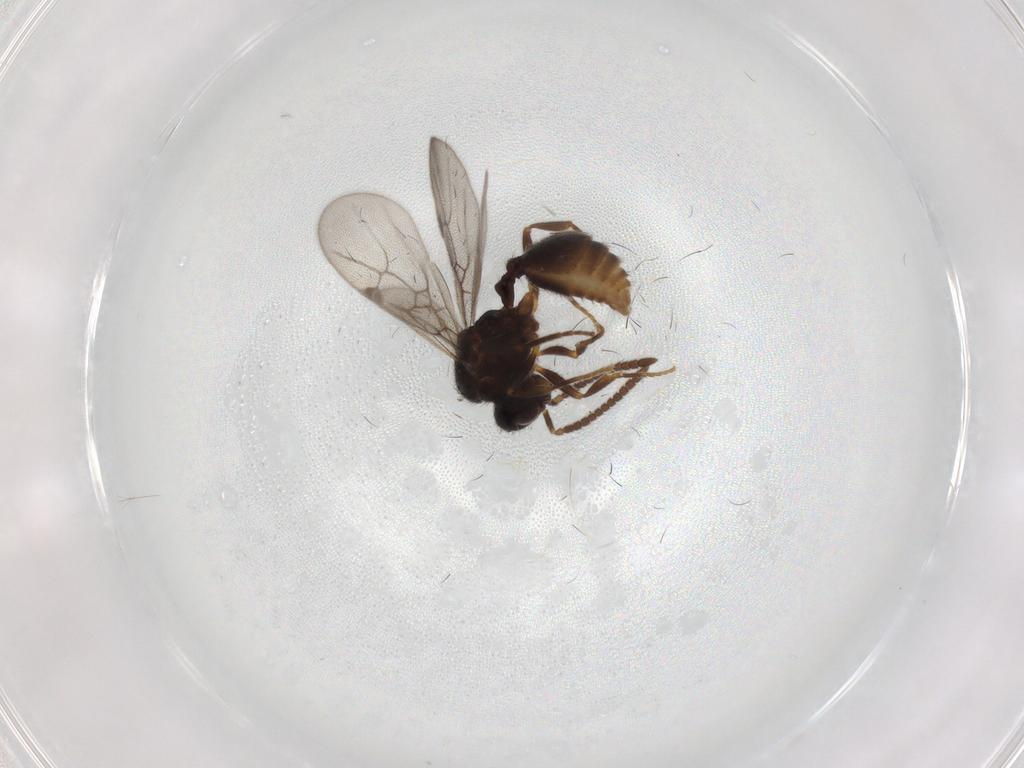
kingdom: Animalia
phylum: Arthropoda
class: Insecta
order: Hymenoptera
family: Formicidae
